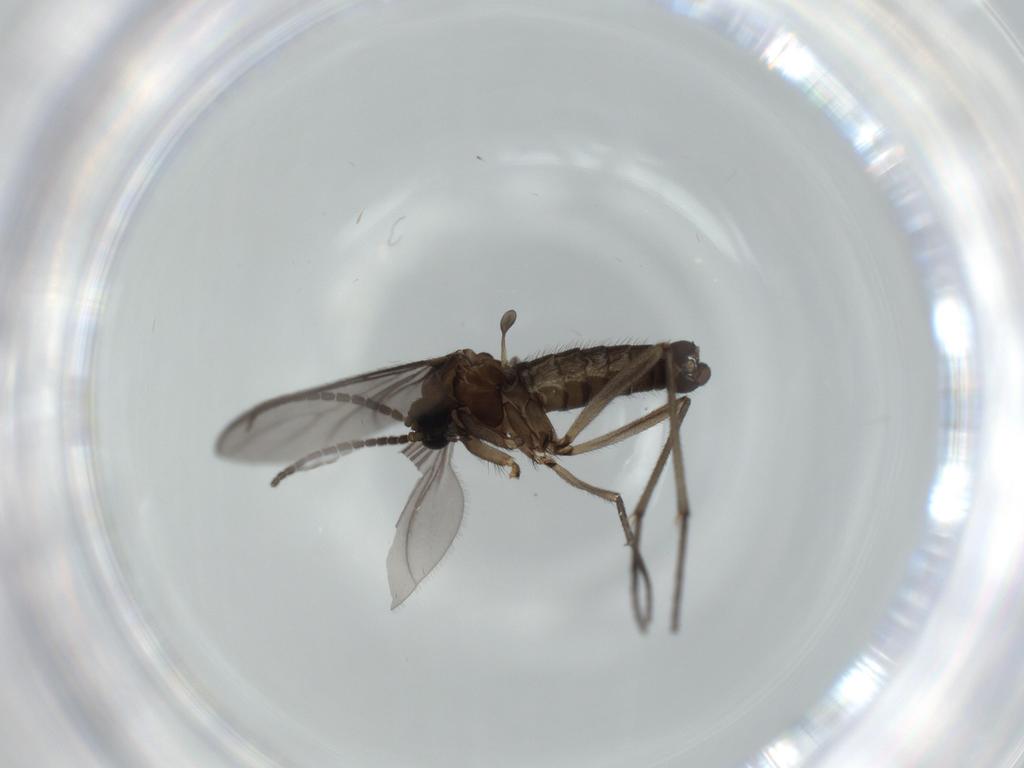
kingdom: Animalia
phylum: Arthropoda
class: Insecta
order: Diptera
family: Sciaridae
